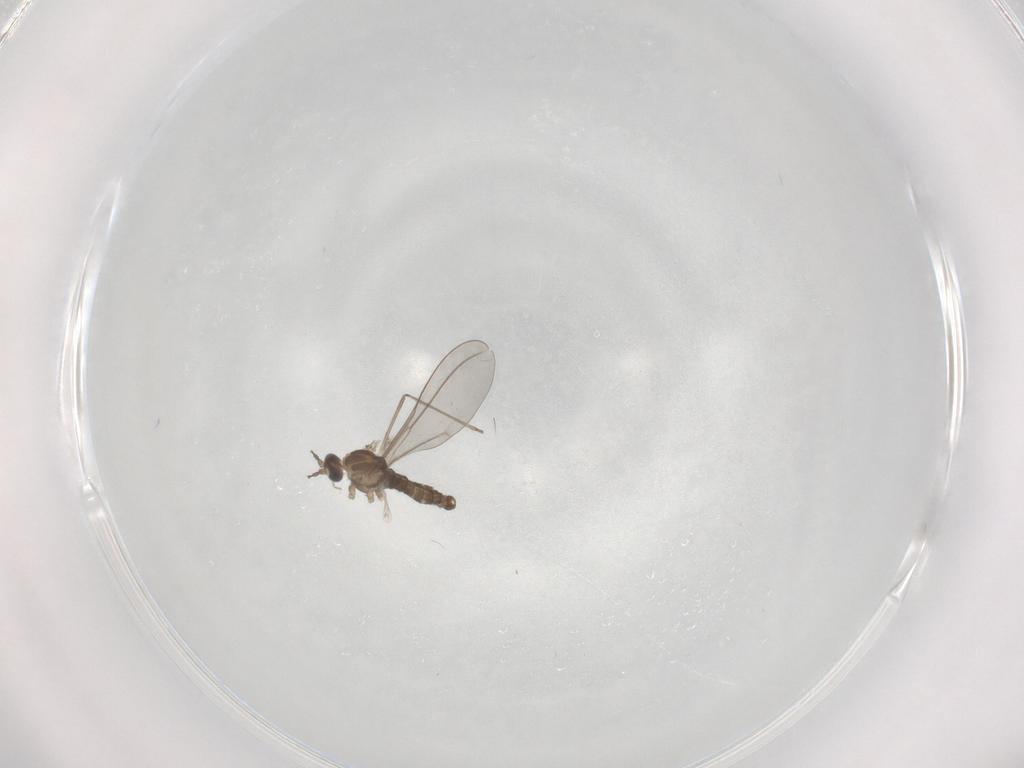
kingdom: Animalia
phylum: Arthropoda
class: Insecta
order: Diptera
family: Cecidomyiidae
